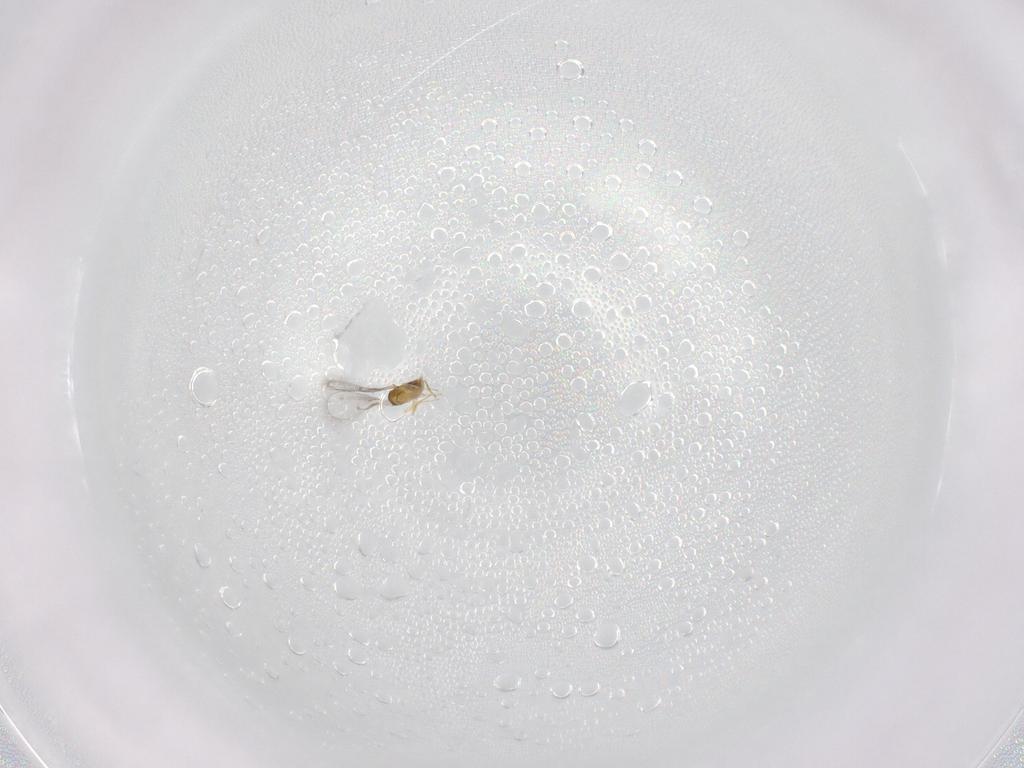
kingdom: Animalia
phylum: Arthropoda
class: Insecta
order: Hymenoptera
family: Trichogrammatidae
